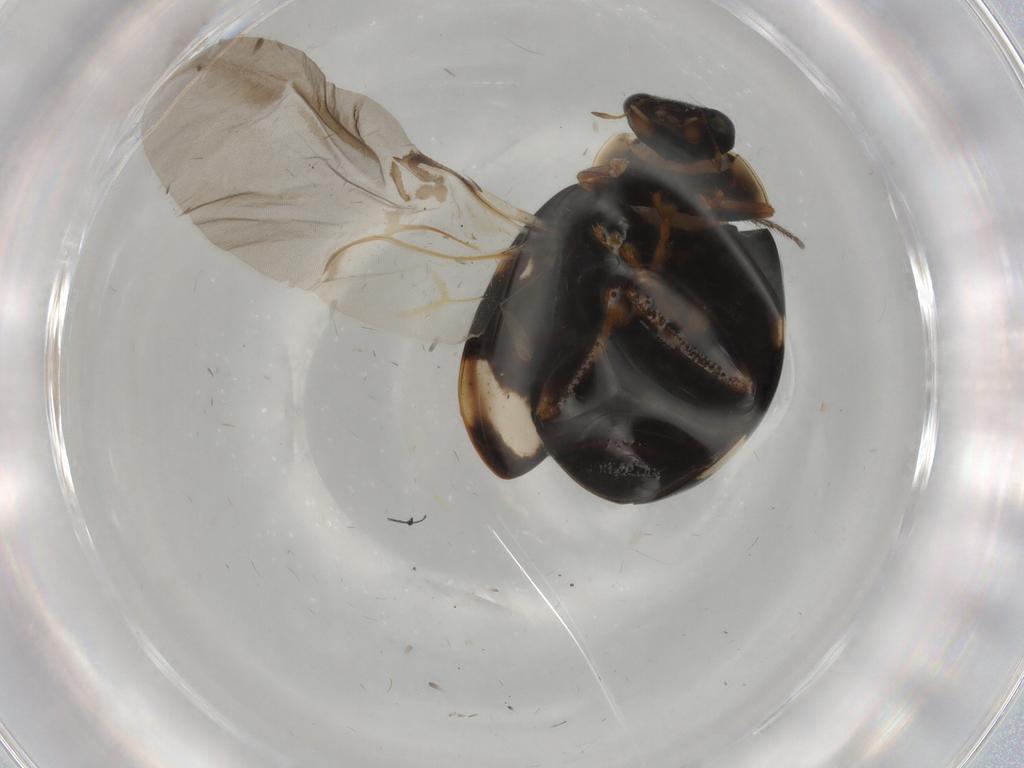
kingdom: Animalia
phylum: Arthropoda
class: Insecta
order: Coleoptera
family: Coccinellidae
